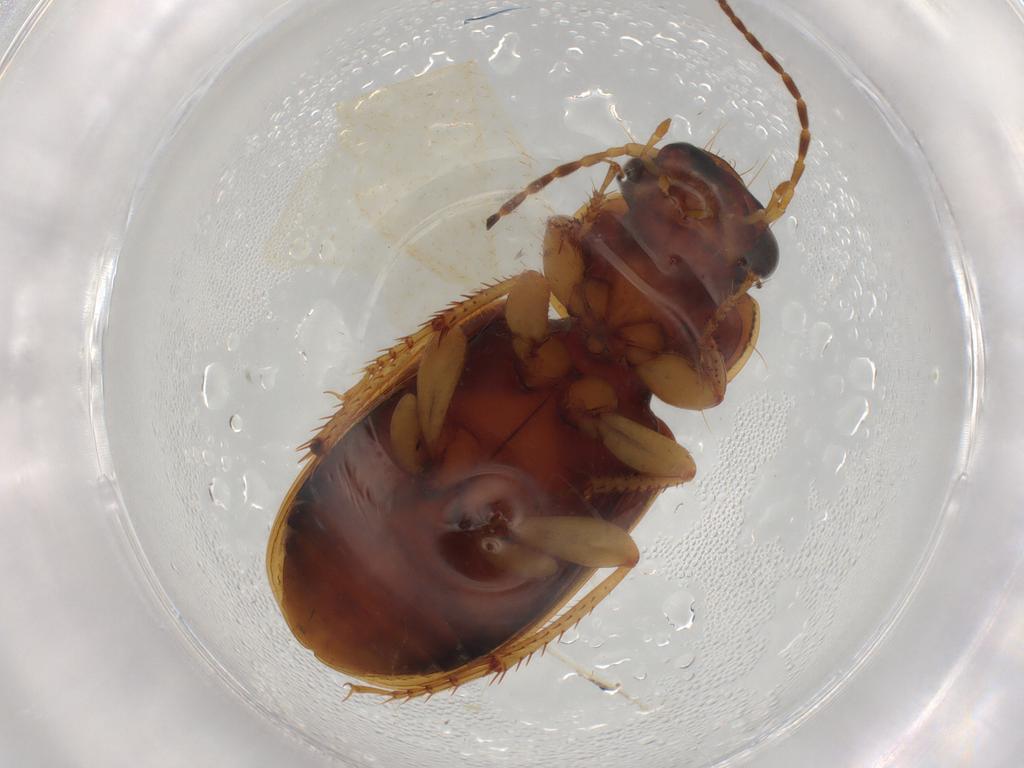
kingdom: Animalia
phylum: Arthropoda
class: Insecta
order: Coleoptera
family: Carabidae
